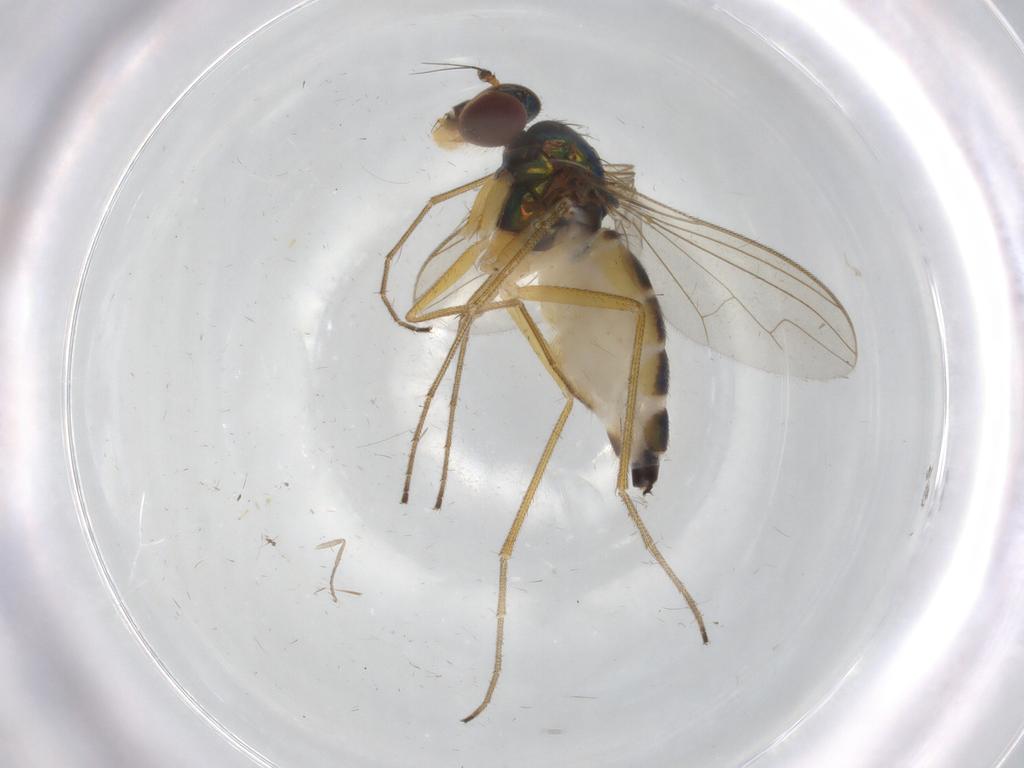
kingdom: Animalia
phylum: Arthropoda
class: Insecta
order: Diptera
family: Dolichopodidae
